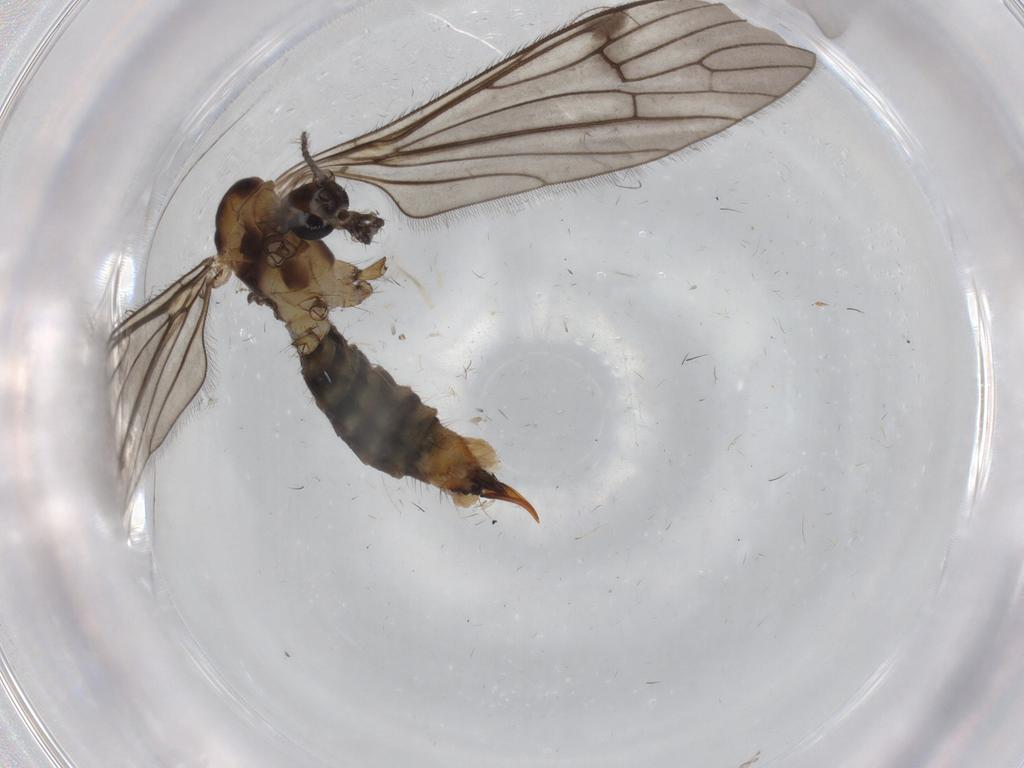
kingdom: Animalia
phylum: Arthropoda
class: Insecta
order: Diptera
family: Limoniidae
